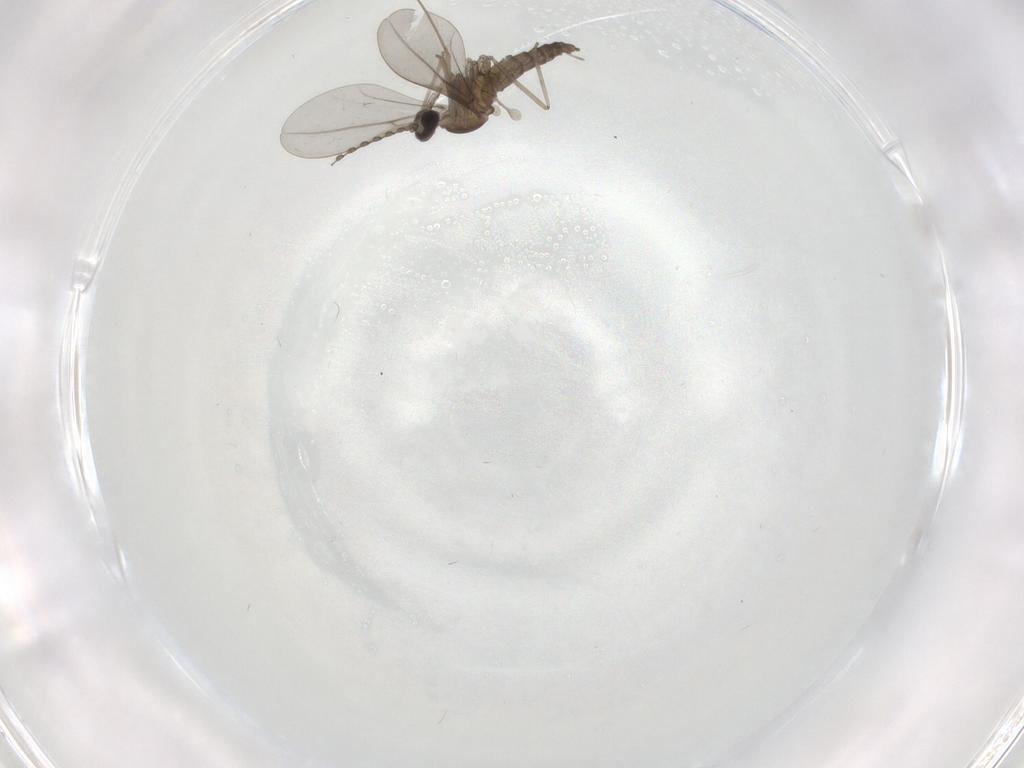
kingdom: Animalia
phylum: Arthropoda
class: Insecta
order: Diptera
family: Phoridae
